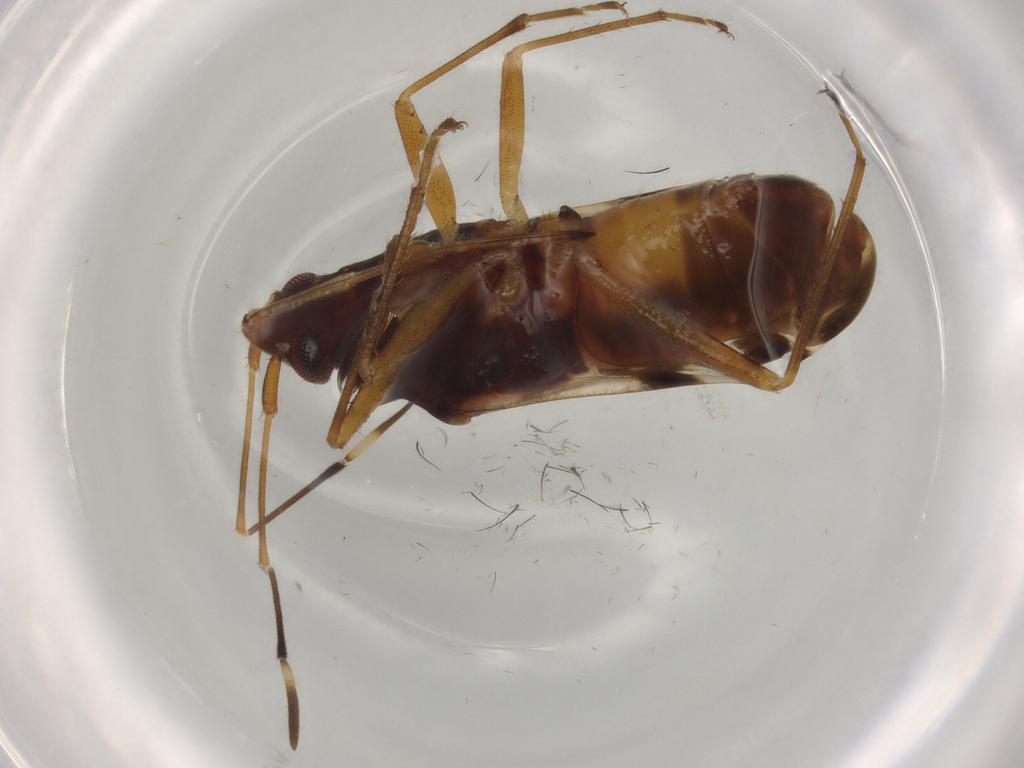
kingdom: Animalia
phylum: Arthropoda
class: Insecta
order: Hemiptera
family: Rhyparochromidae
